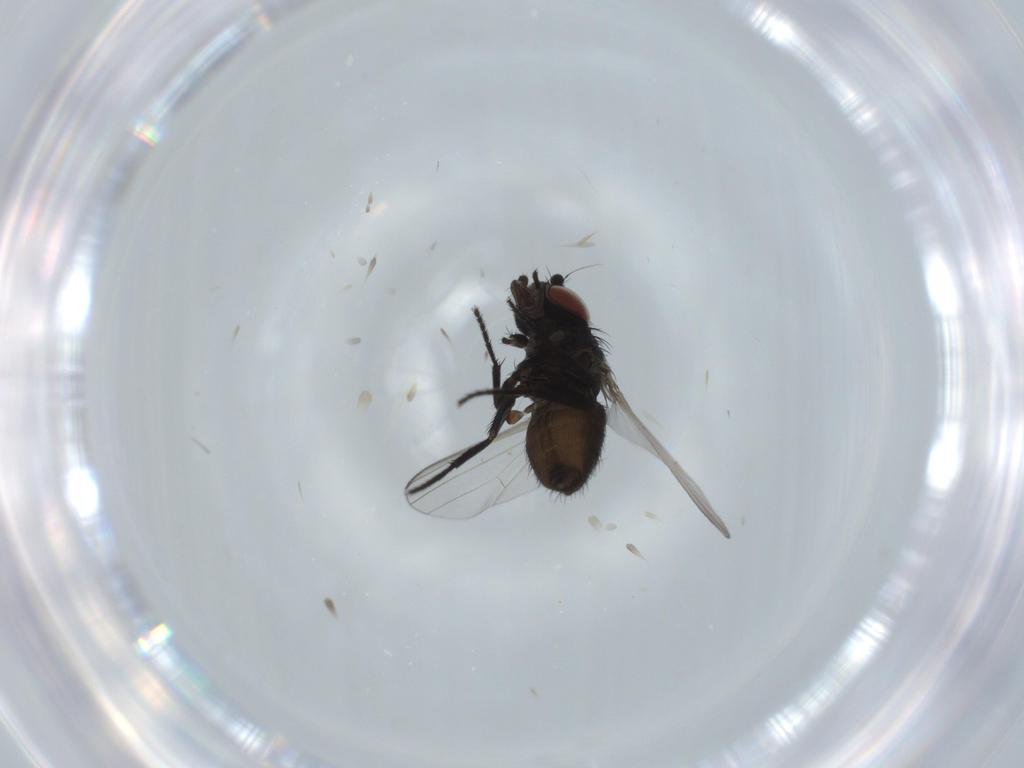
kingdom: Animalia
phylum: Arthropoda
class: Insecta
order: Diptera
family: Milichiidae
